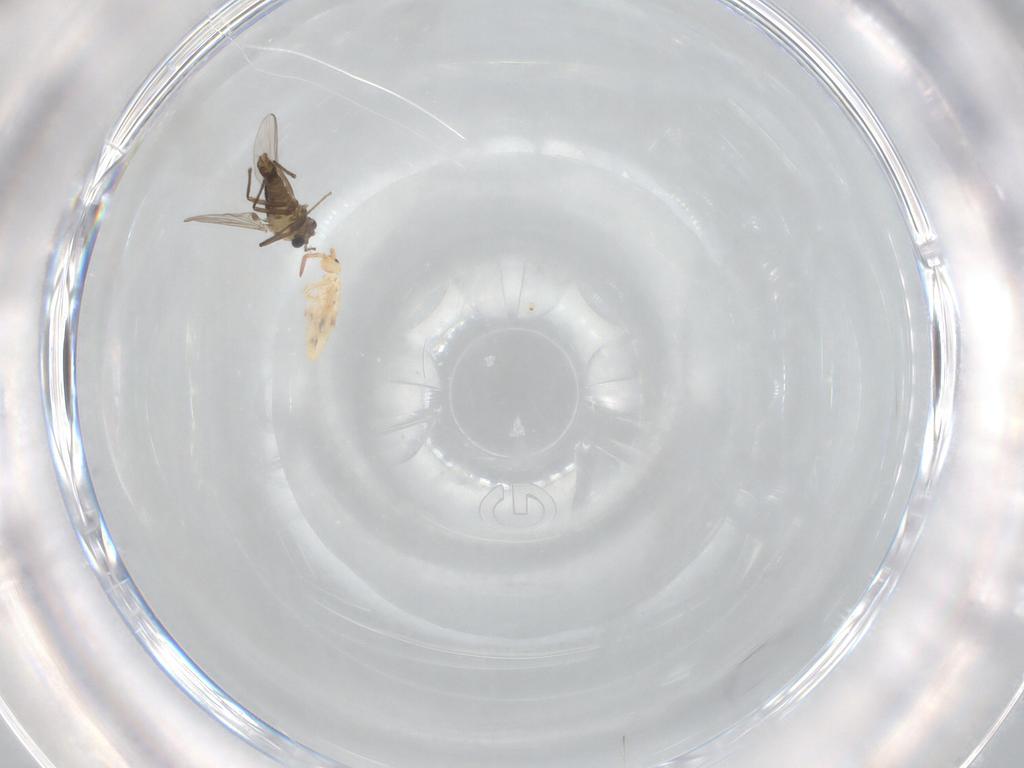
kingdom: Animalia
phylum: Arthropoda
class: Collembola
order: Poduromorpha
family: Hypogastruridae
